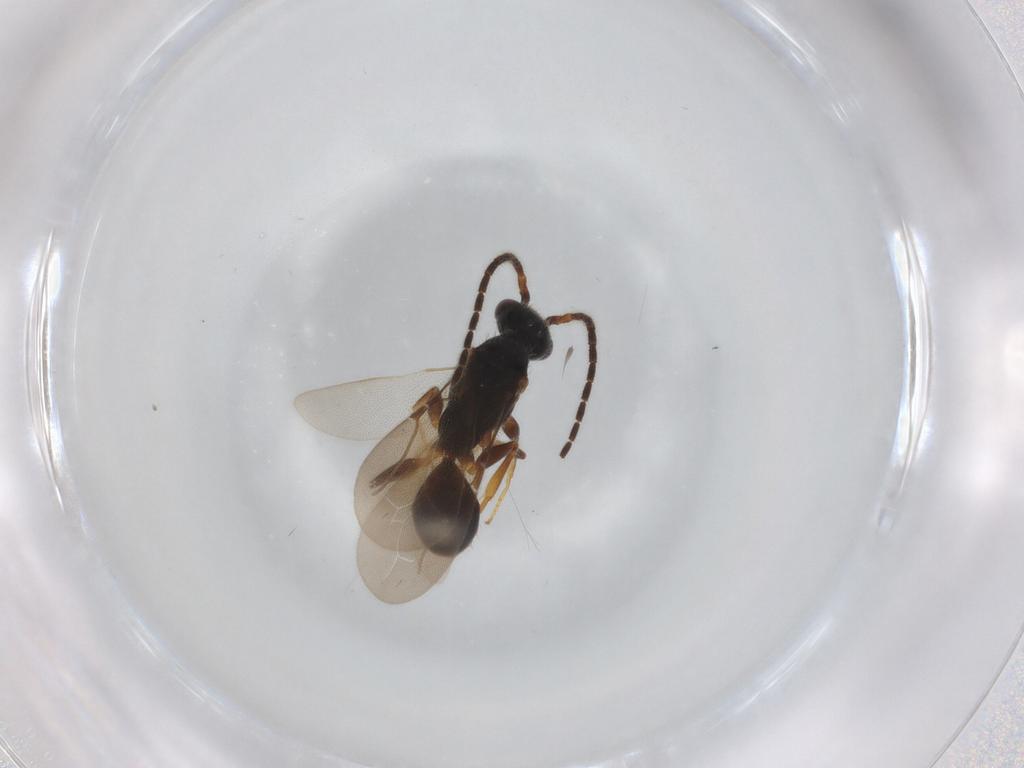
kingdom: Animalia
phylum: Arthropoda
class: Insecta
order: Hymenoptera
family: Bethylidae
